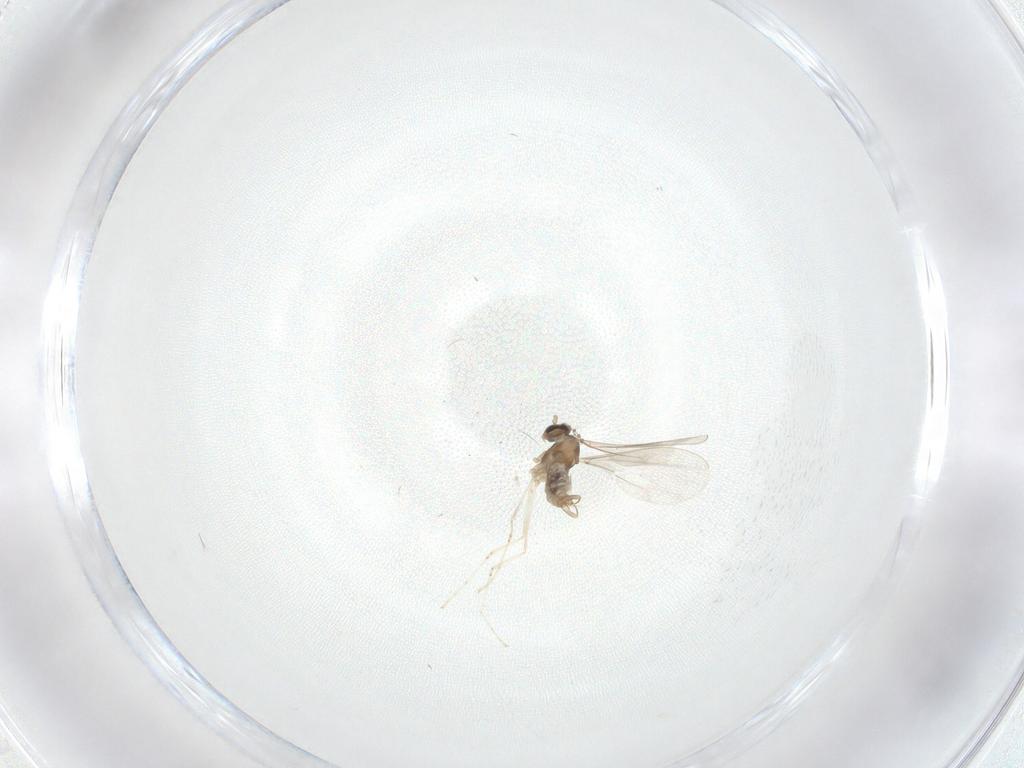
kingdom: Animalia
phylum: Arthropoda
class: Insecta
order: Diptera
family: Cecidomyiidae
